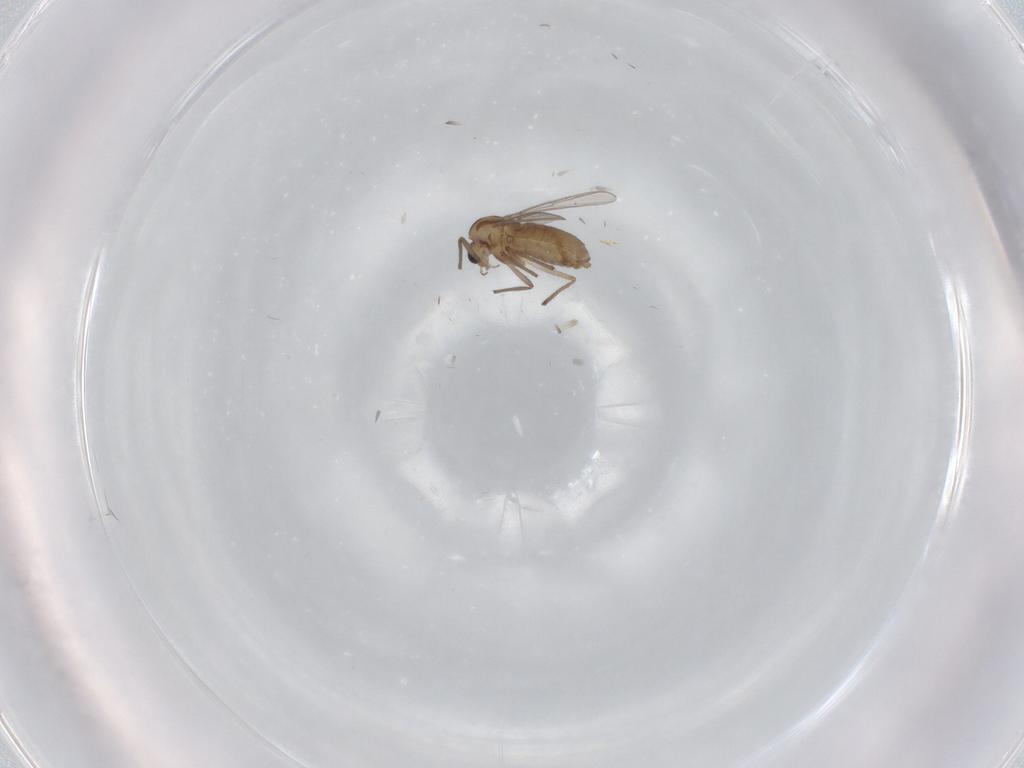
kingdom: Animalia
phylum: Arthropoda
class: Insecta
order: Diptera
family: Chironomidae
